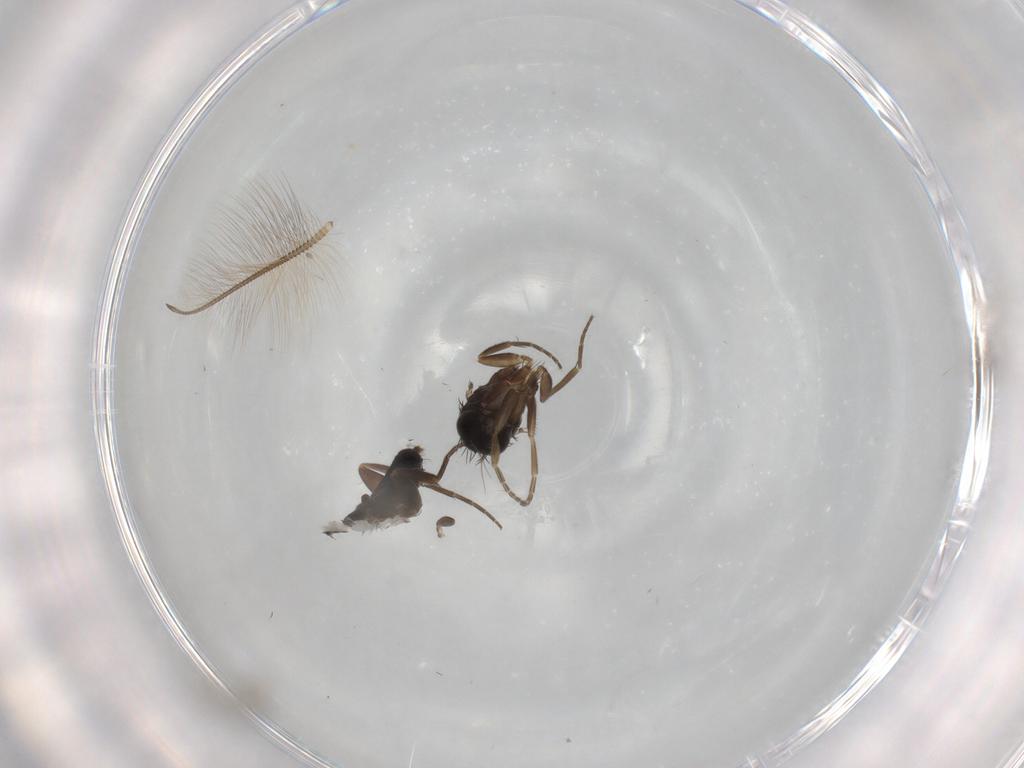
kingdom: Animalia
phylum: Arthropoda
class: Insecta
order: Diptera
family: Phoridae
